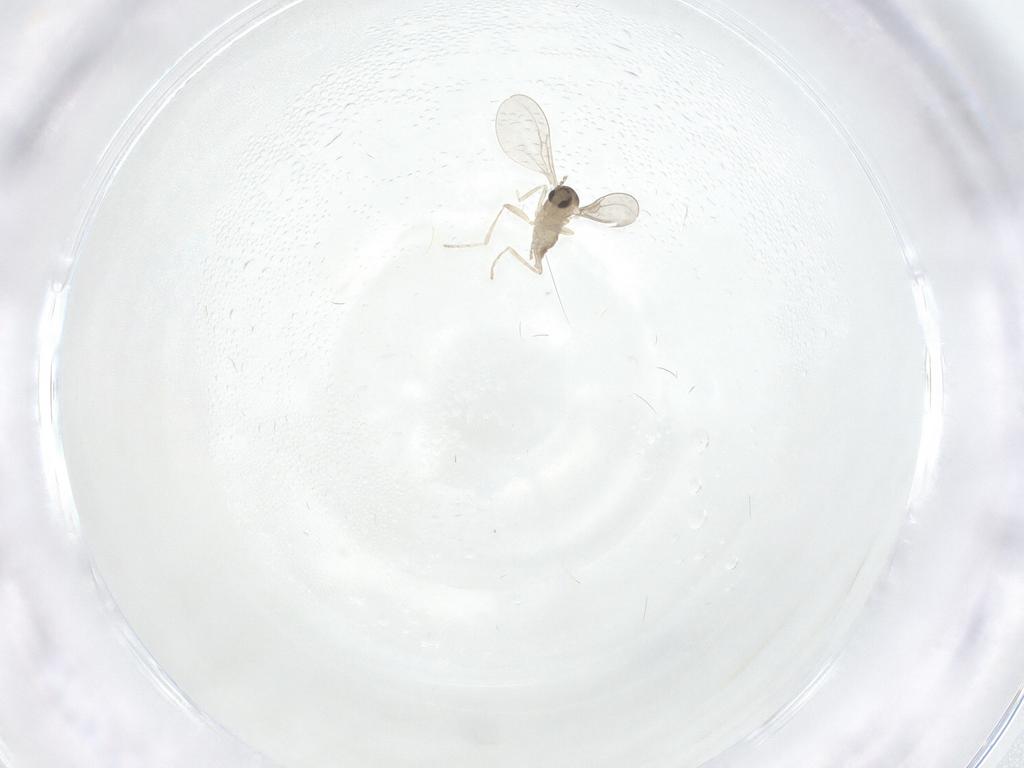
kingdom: Animalia
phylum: Arthropoda
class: Insecta
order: Diptera
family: Cecidomyiidae
